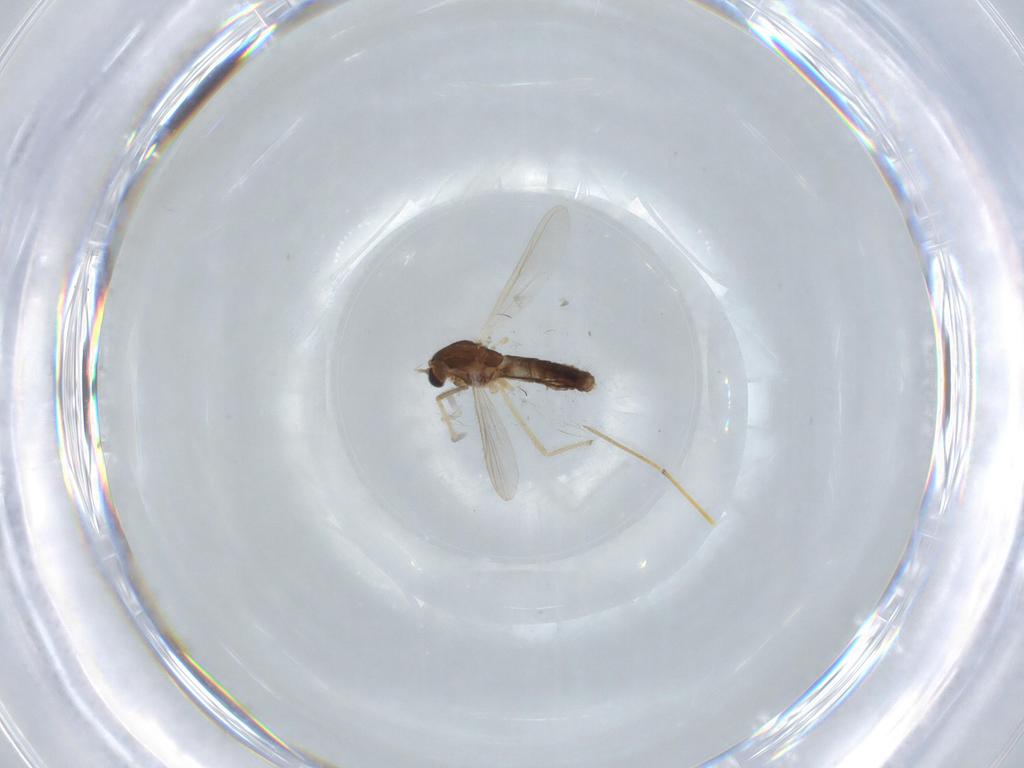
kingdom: Animalia
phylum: Arthropoda
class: Insecta
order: Diptera
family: Chironomidae
